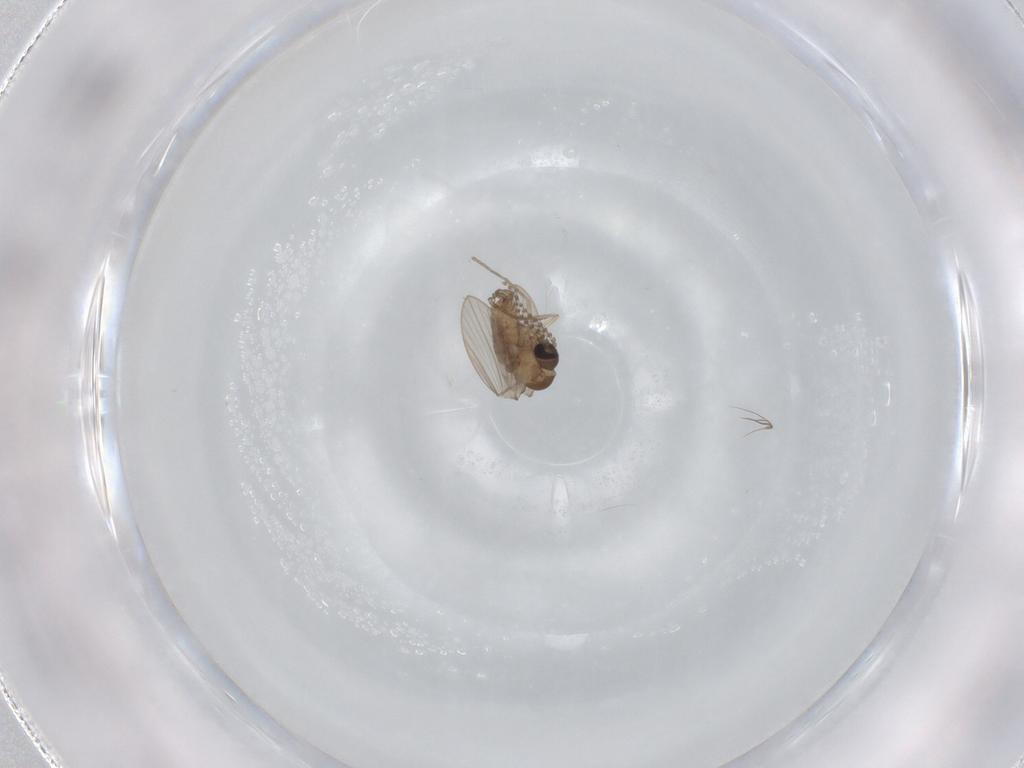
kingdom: Animalia
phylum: Arthropoda
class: Insecta
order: Diptera
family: Psychodidae
